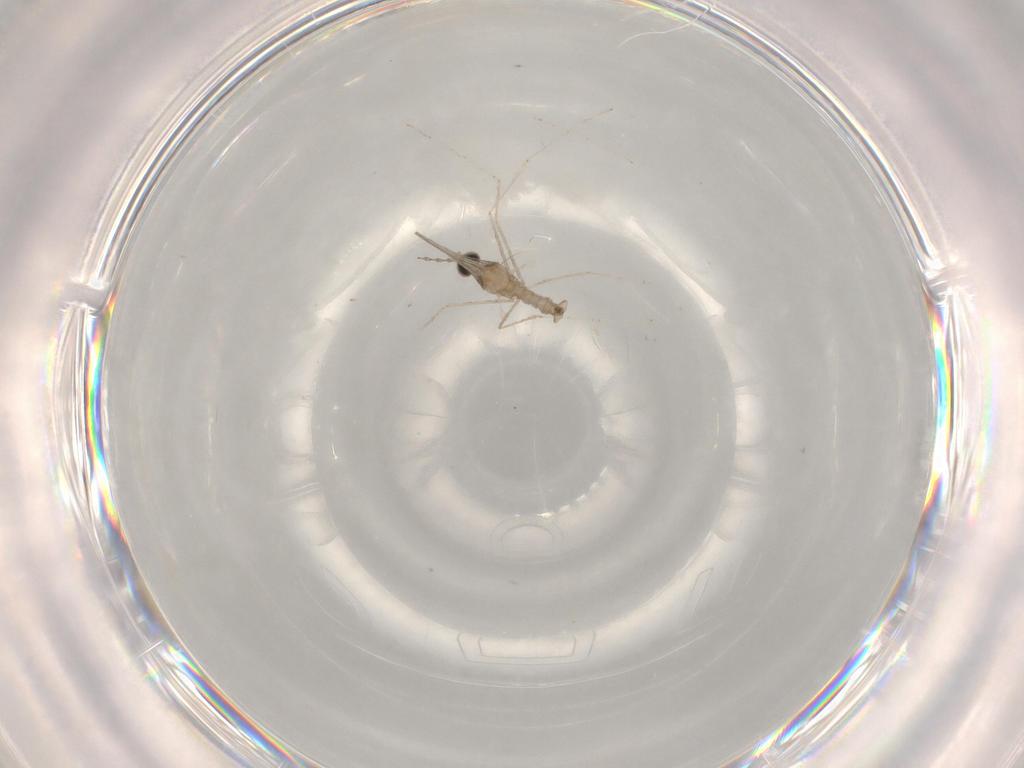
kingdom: Animalia
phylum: Arthropoda
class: Insecta
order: Diptera
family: Cecidomyiidae
